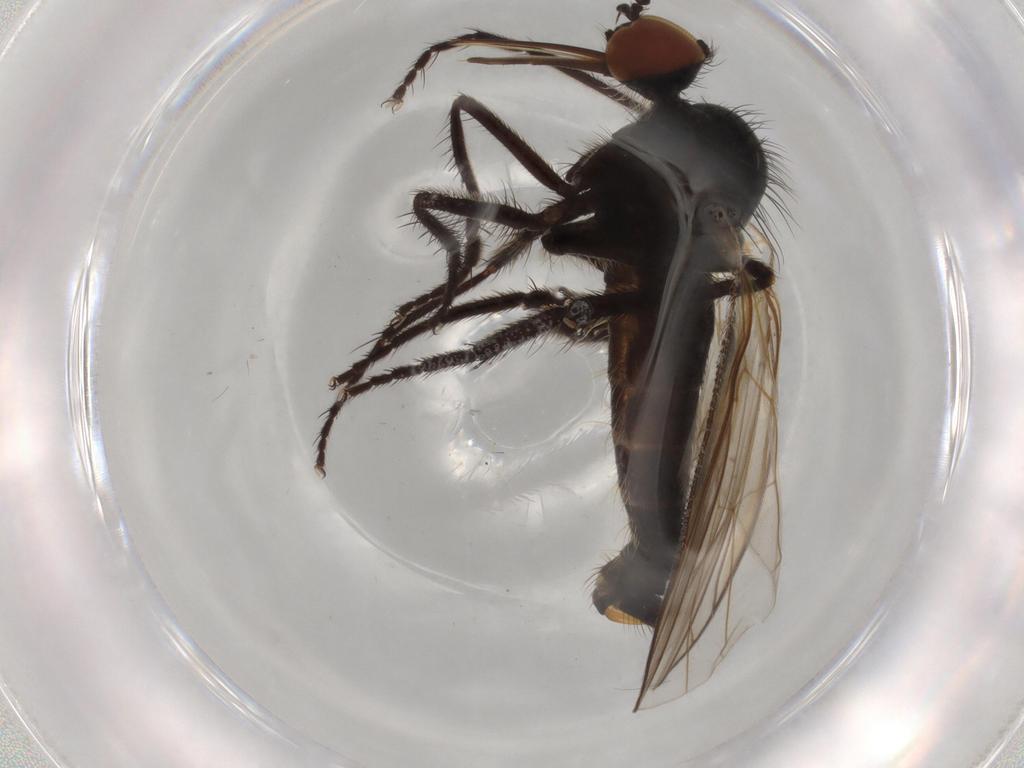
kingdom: Animalia
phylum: Arthropoda
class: Insecta
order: Diptera
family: Empididae
